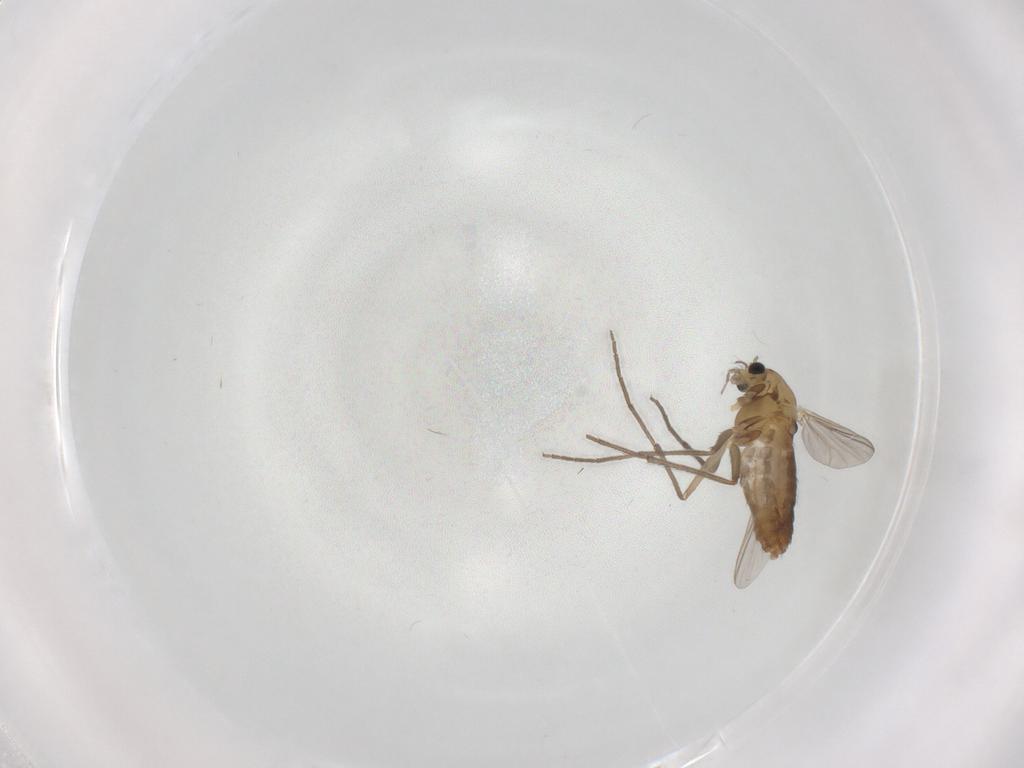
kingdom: Animalia
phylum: Arthropoda
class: Insecta
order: Diptera
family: Chironomidae
